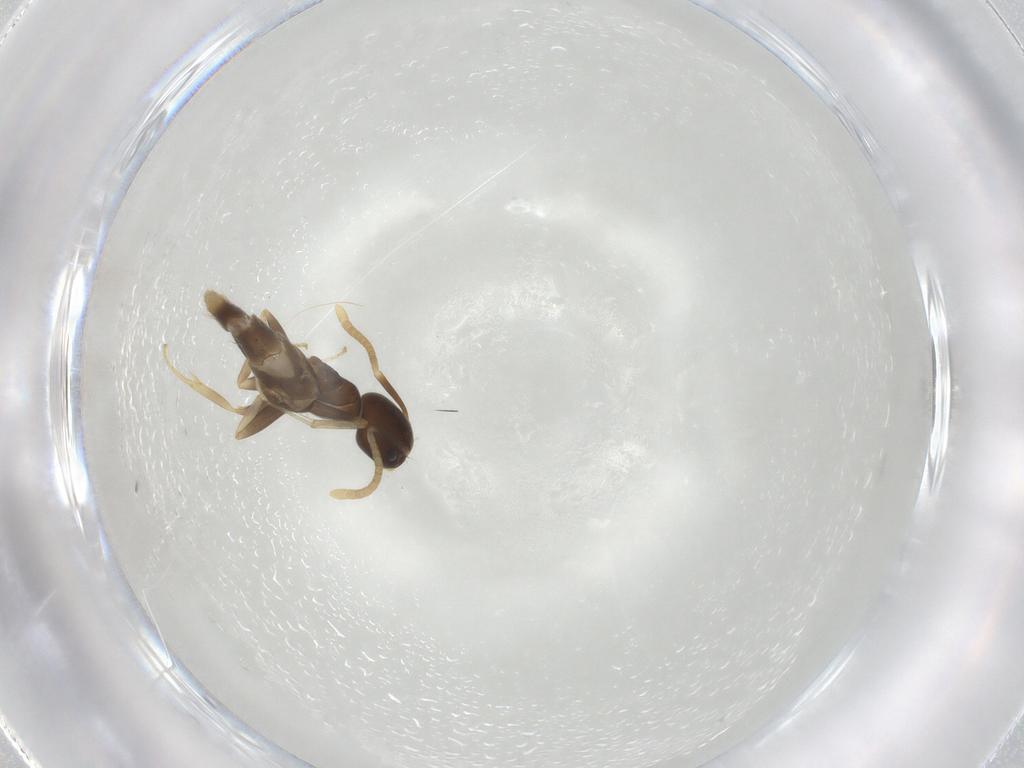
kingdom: Animalia
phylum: Arthropoda
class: Insecta
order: Hymenoptera
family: Formicidae
